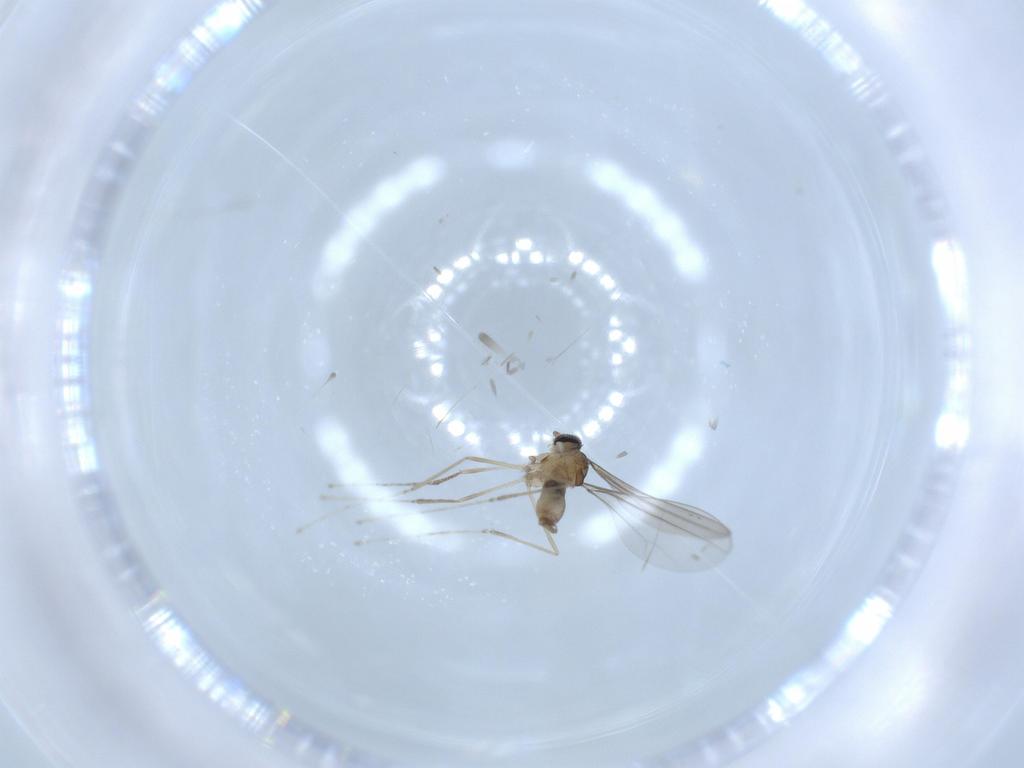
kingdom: Animalia
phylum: Arthropoda
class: Insecta
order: Diptera
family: Cecidomyiidae
